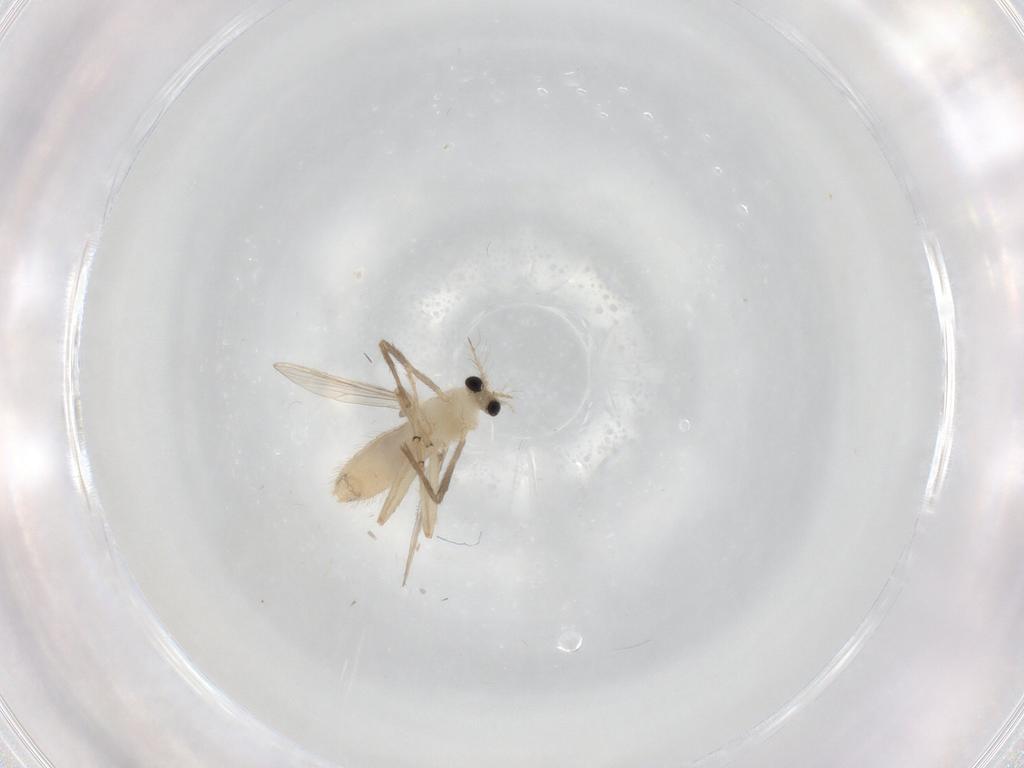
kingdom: Animalia
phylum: Arthropoda
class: Insecta
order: Diptera
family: Chironomidae
